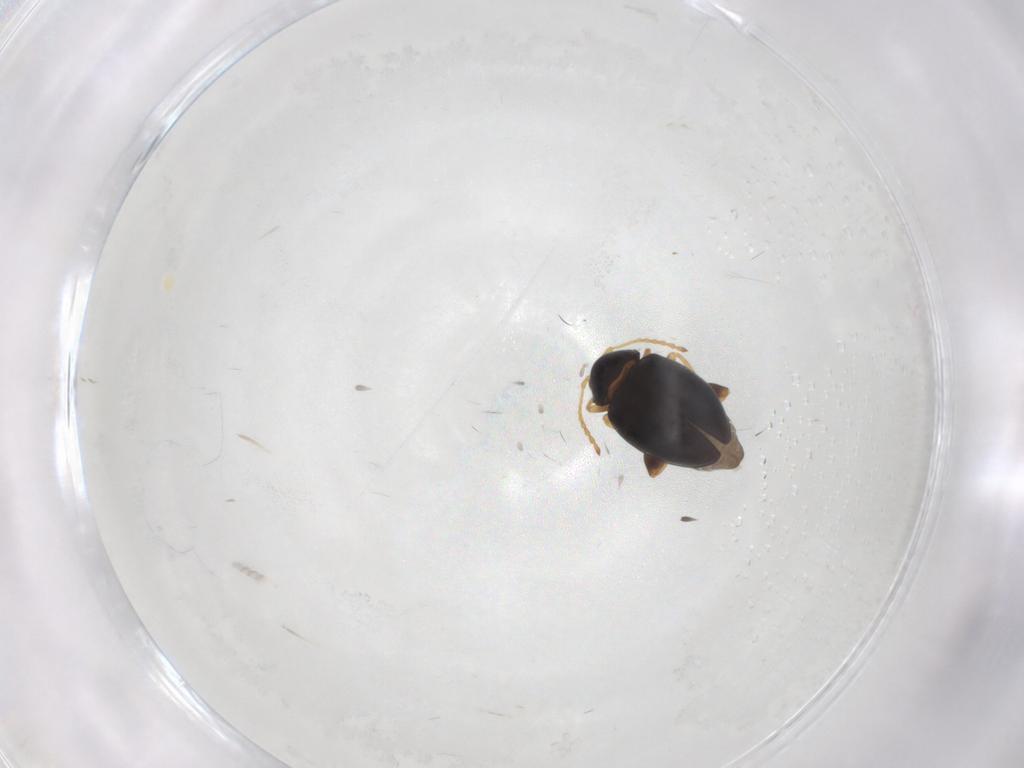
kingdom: Animalia
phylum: Arthropoda
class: Insecta
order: Coleoptera
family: Chrysomelidae
